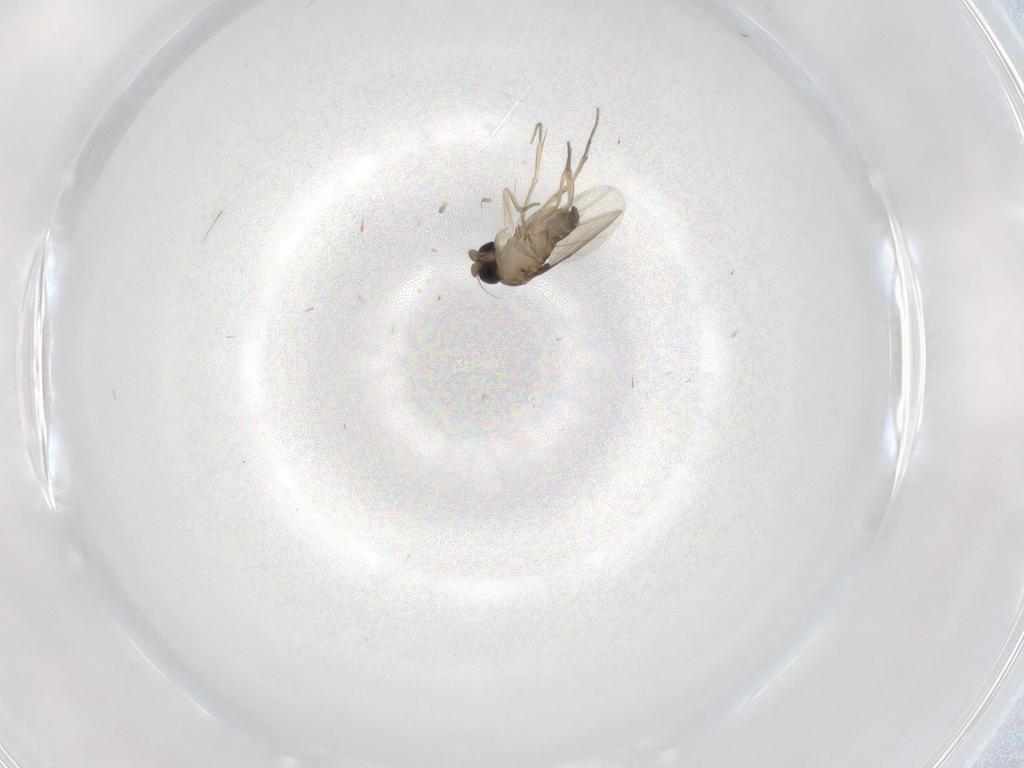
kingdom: Animalia
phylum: Arthropoda
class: Insecta
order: Diptera
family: Phoridae
